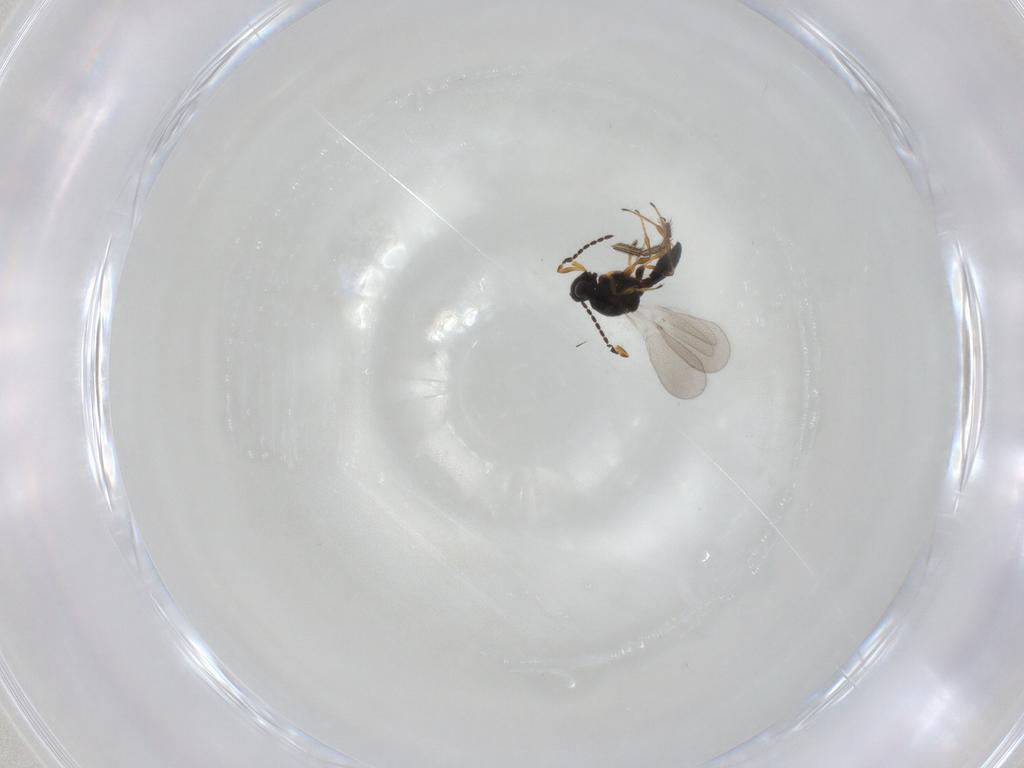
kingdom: Animalia
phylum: Arthropoda
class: Insecta
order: Hymenoptera
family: Platygastridae
